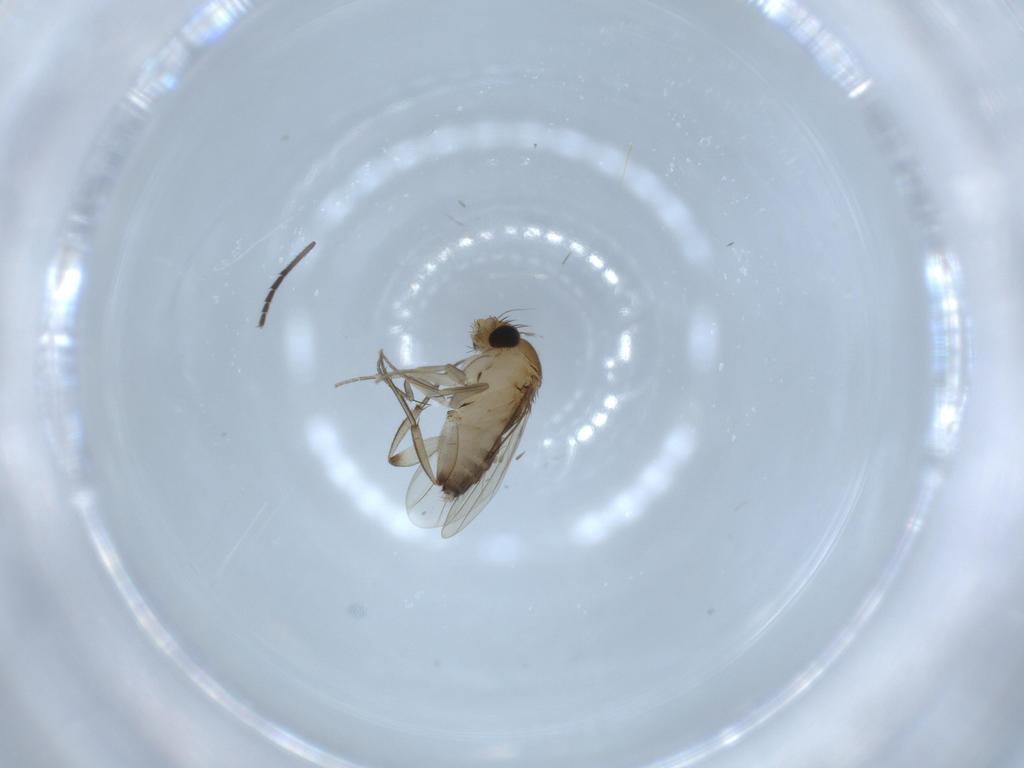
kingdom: Animalia
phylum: Arthropoda
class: Insecta
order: Diptera
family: Phoridae
